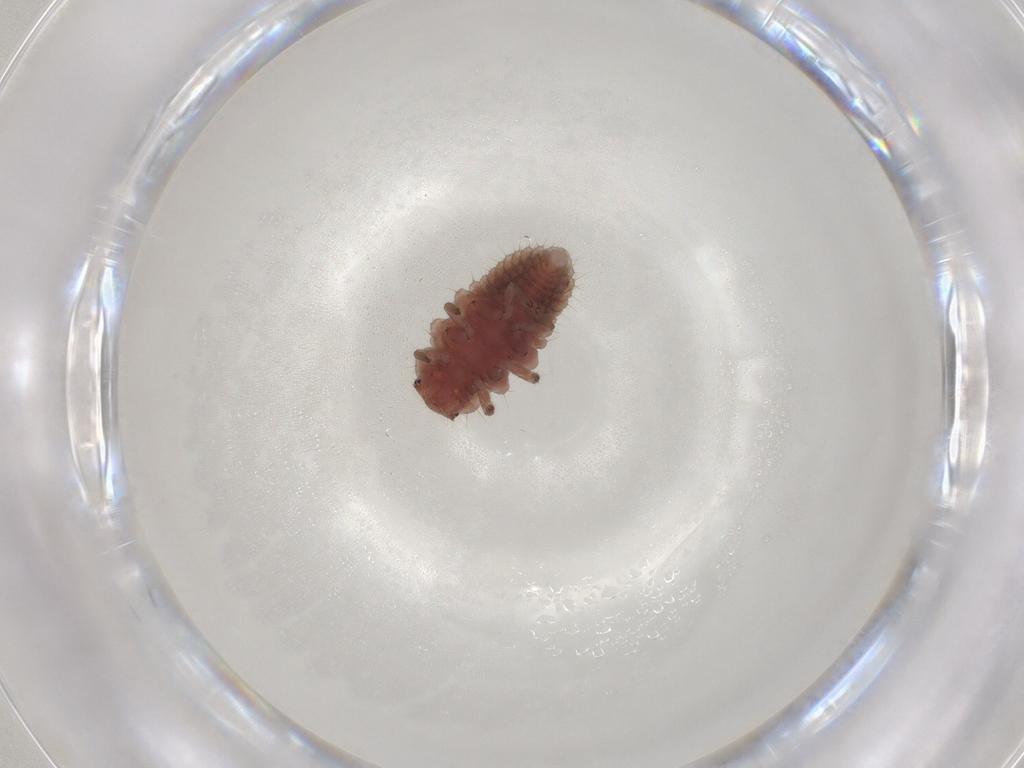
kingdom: Animalia
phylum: Arthropoda
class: Insecta
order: Coleoptera
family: Coccinellidae
